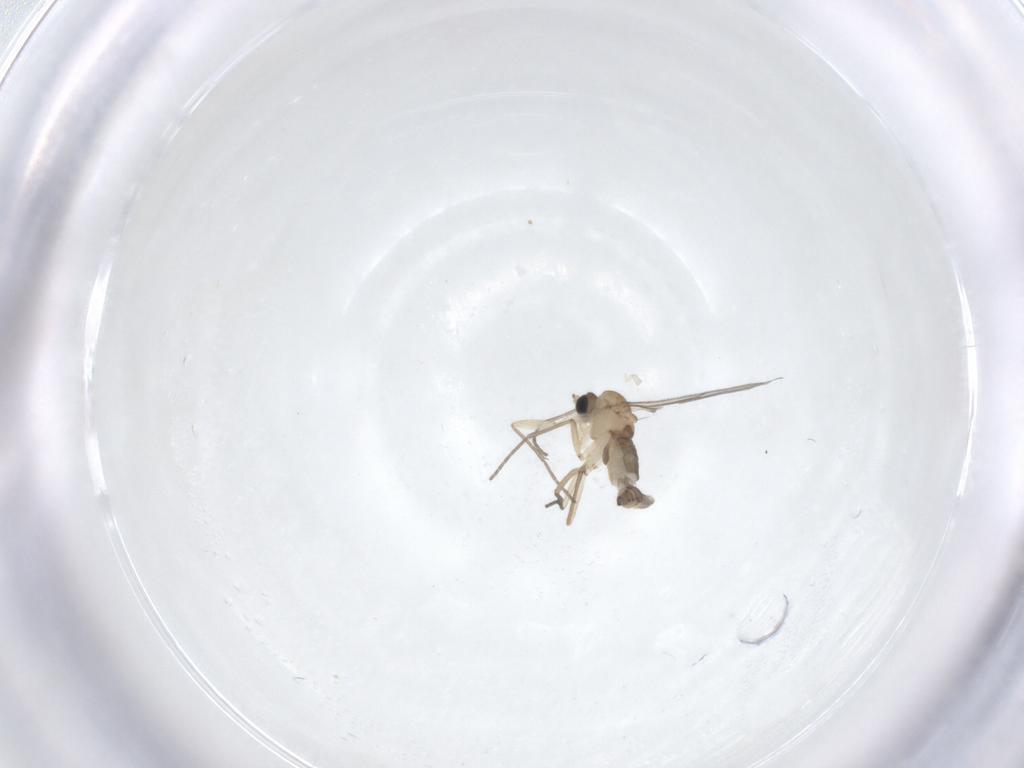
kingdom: Animalia
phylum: Arthropoda
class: Insecta
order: Diptera
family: Sciaridae
